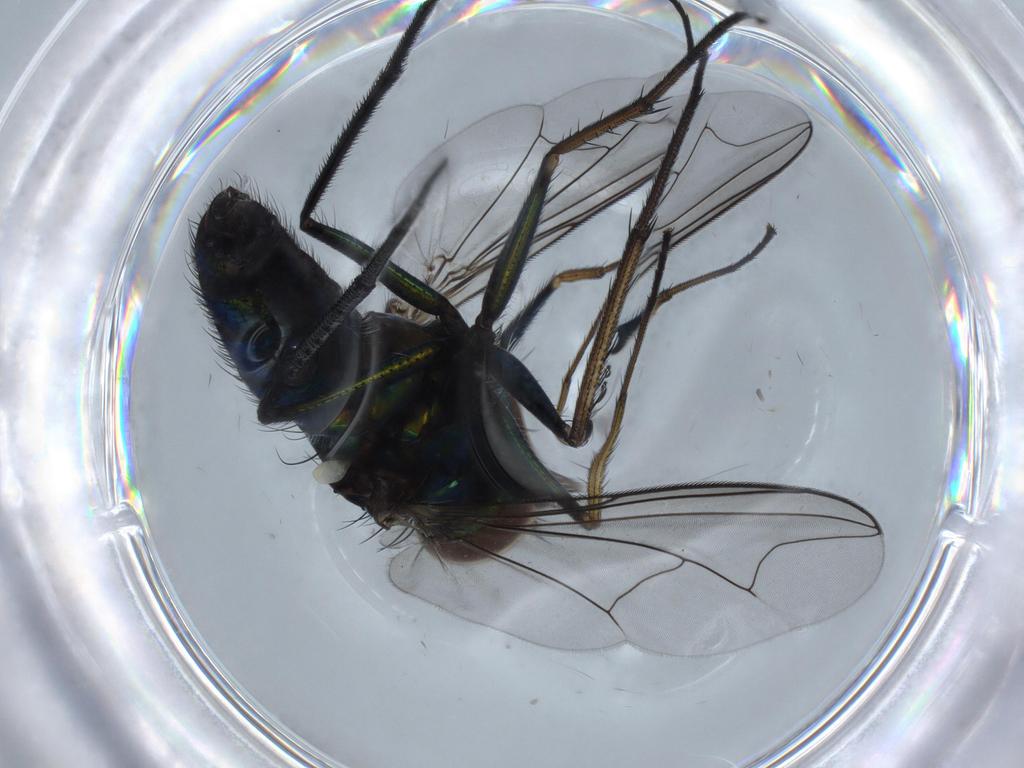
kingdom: Animalia
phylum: Arthropoda
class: Insecta
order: Diptera
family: Dolichopodidae
